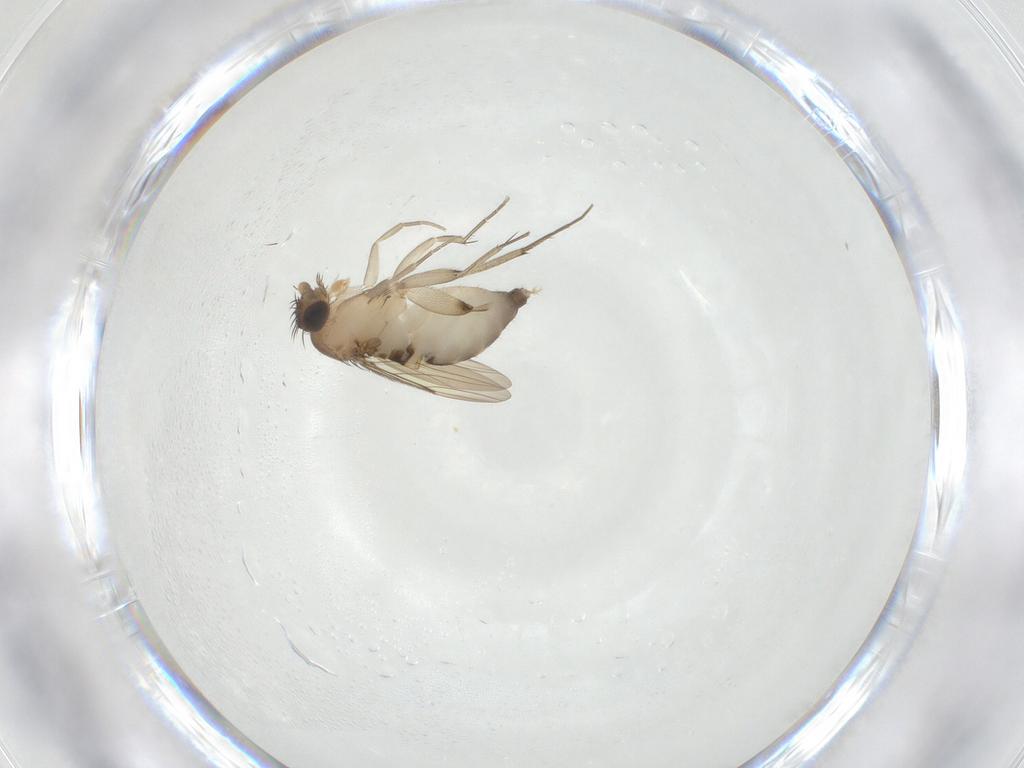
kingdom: Animalia
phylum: Arthropoda
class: Insecta
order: Diptera
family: Phoridae
